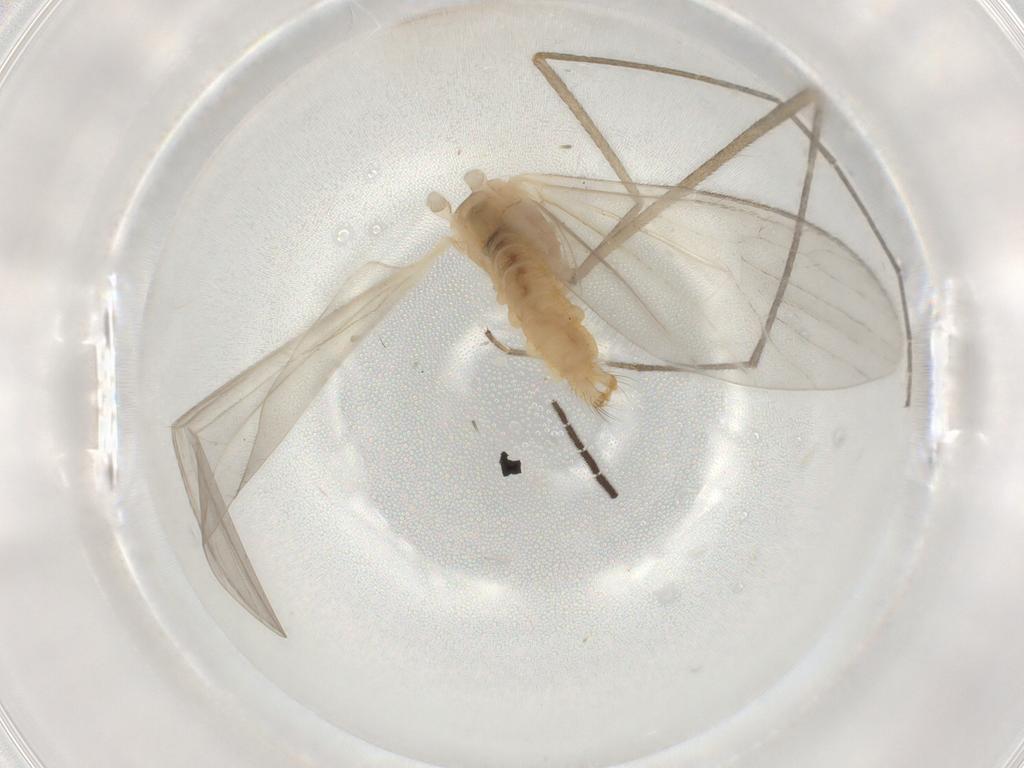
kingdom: Animalia
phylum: Arthropoda
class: Insecta
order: Diptera
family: Limoniidae
